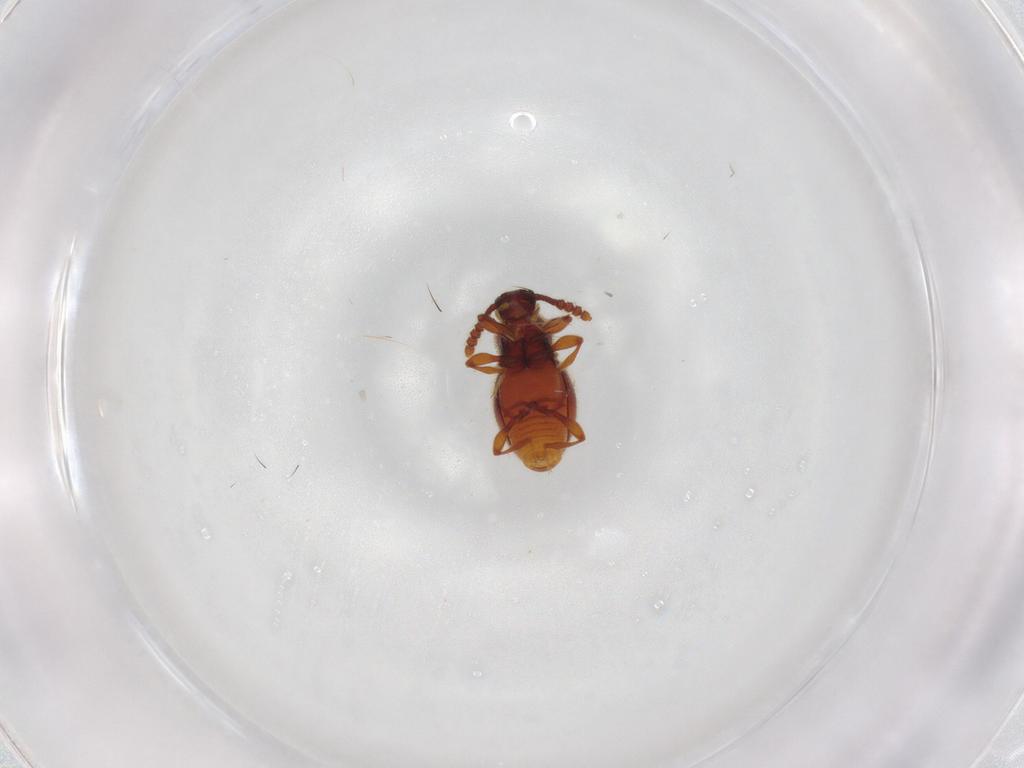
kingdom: Animalia
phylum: Arthropoda
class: Insecta
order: Coleoptera
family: Staphylinidae
